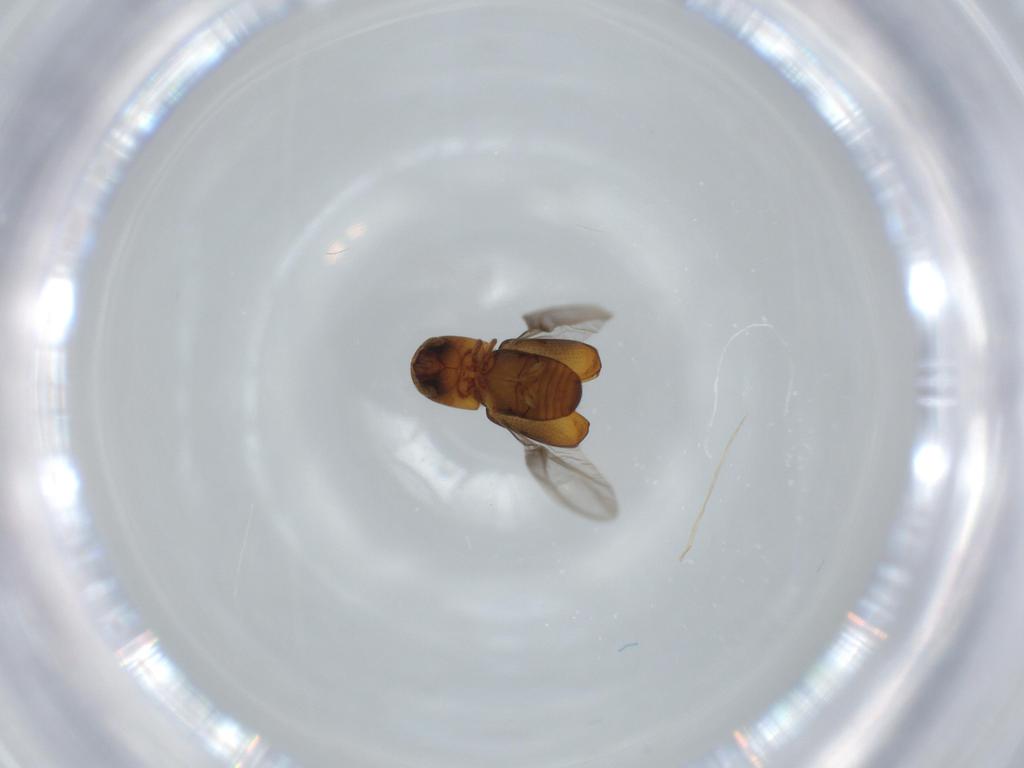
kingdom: Animalia
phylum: Arthropoda
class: Insecta
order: Coleoptera
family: Curculionidae
